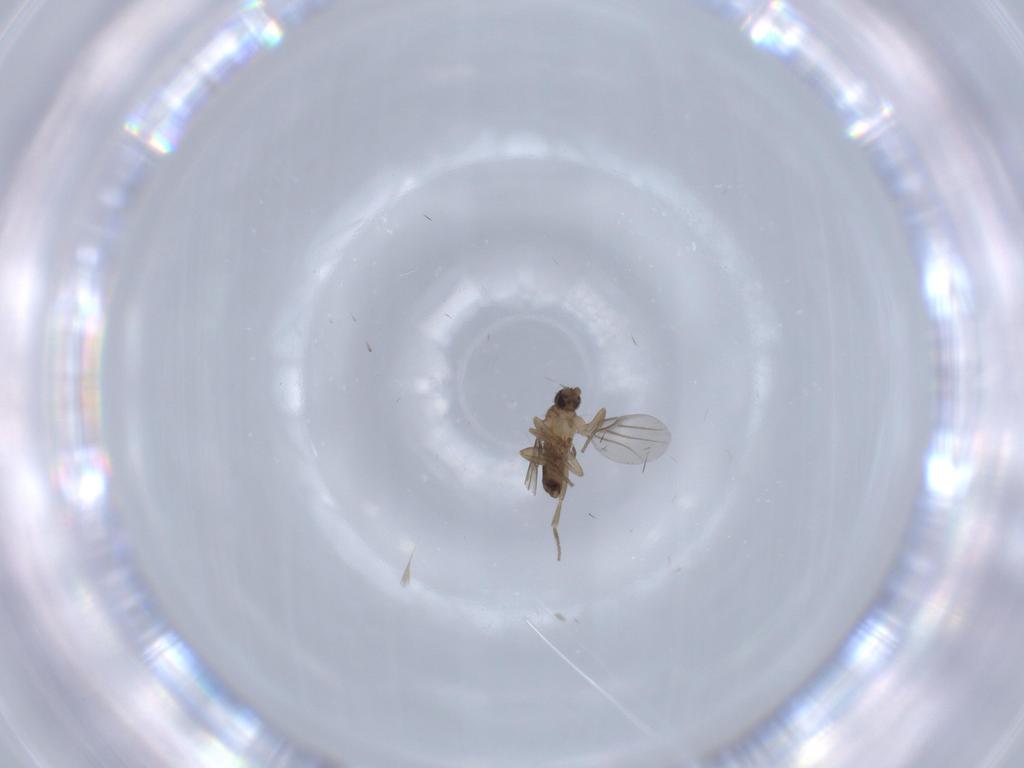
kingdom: Animalia
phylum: Arthropoda
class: Insecta
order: Diptera
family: Phoridae
